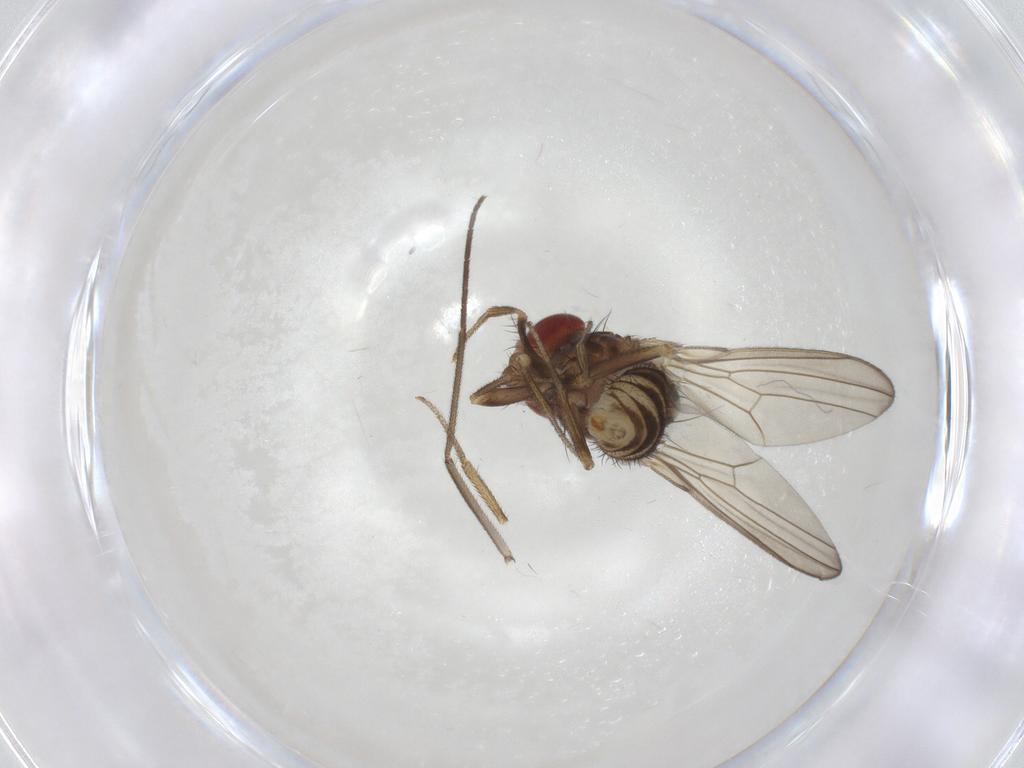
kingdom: Animalia
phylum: Arthropoda
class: Insecta
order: Diptera
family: Drosophilidae
